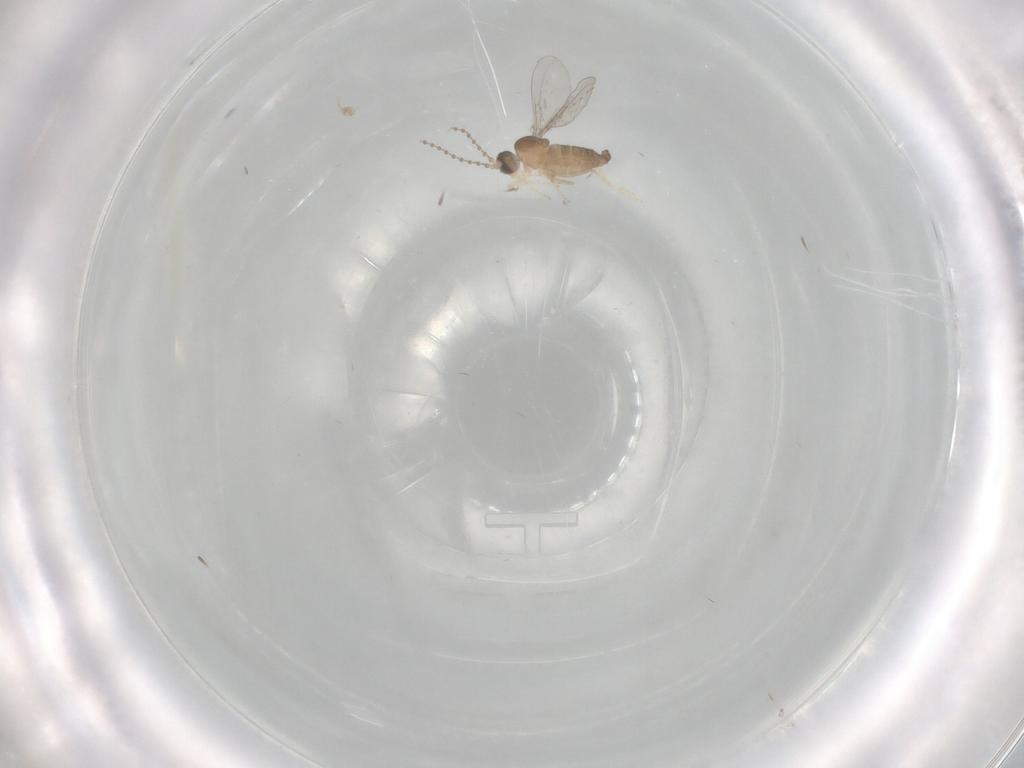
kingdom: Animalia
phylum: Arthropoda
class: Insecta
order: Diptera
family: Cecidomyiidae
